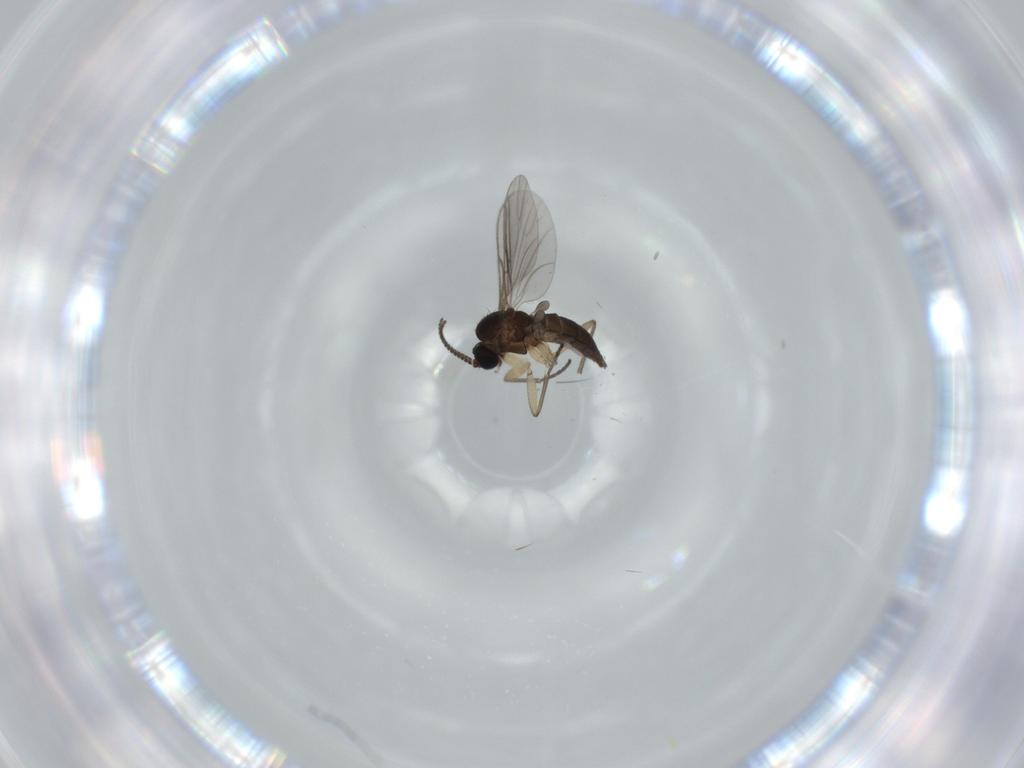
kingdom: Animalia
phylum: Arthropoda
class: Insecta
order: Diptera
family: Sciaridae
